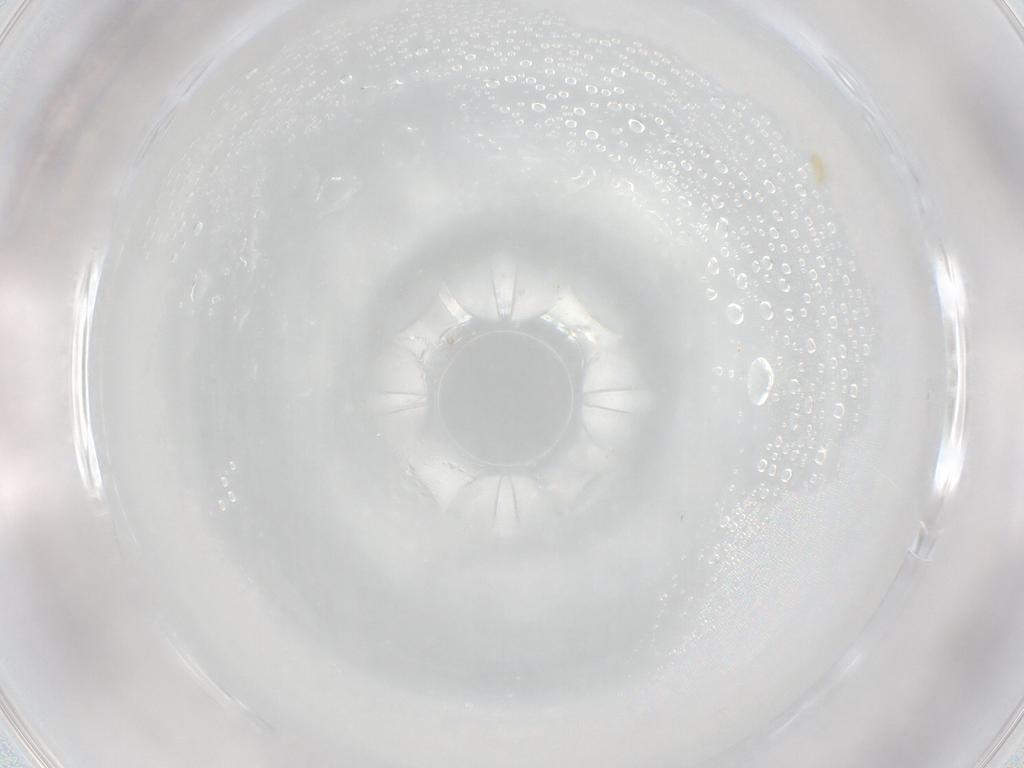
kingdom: Animalia
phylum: Arthropoda
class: Arachnida
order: Trombidiformes
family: Eupodidae
